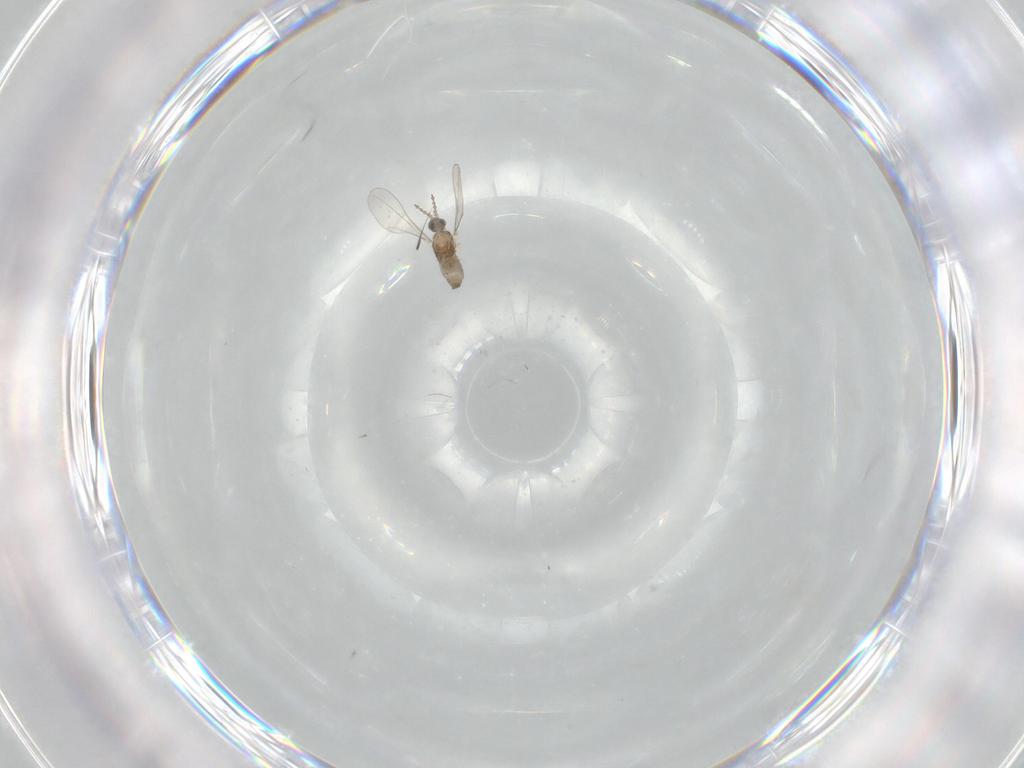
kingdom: Animalia
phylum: Arthropoda
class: Insecta
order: Diptera
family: Cecidomyiidae
